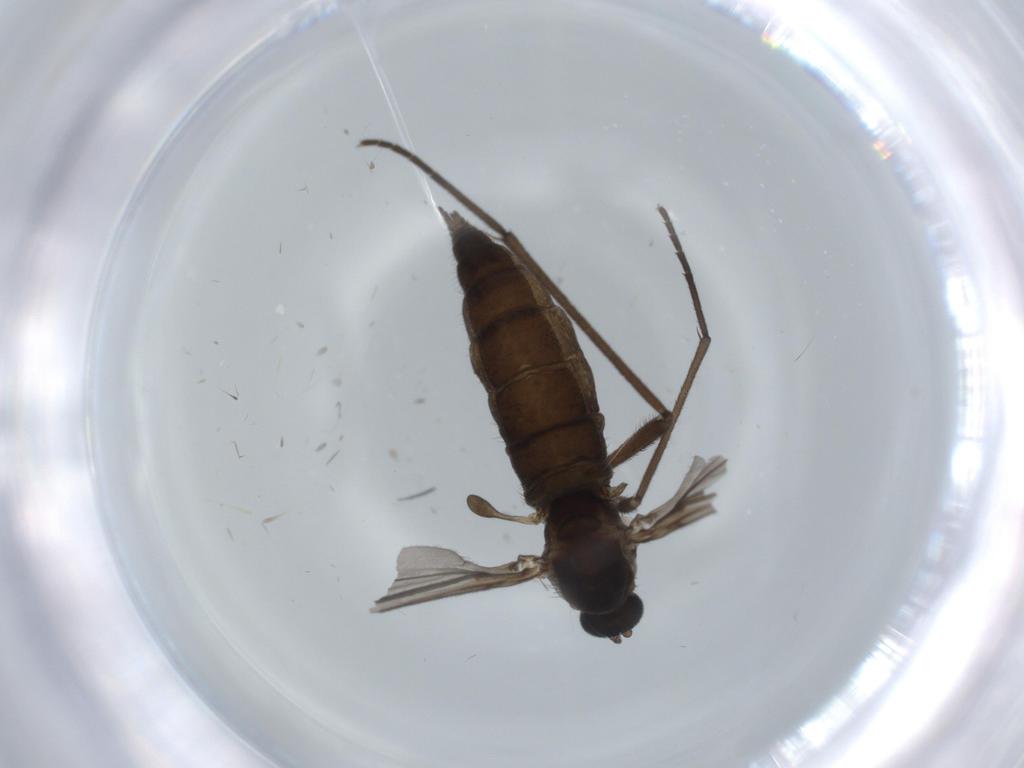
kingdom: Animalia
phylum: Arthropoda
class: Insecta
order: Diptera
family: Sciaridae
